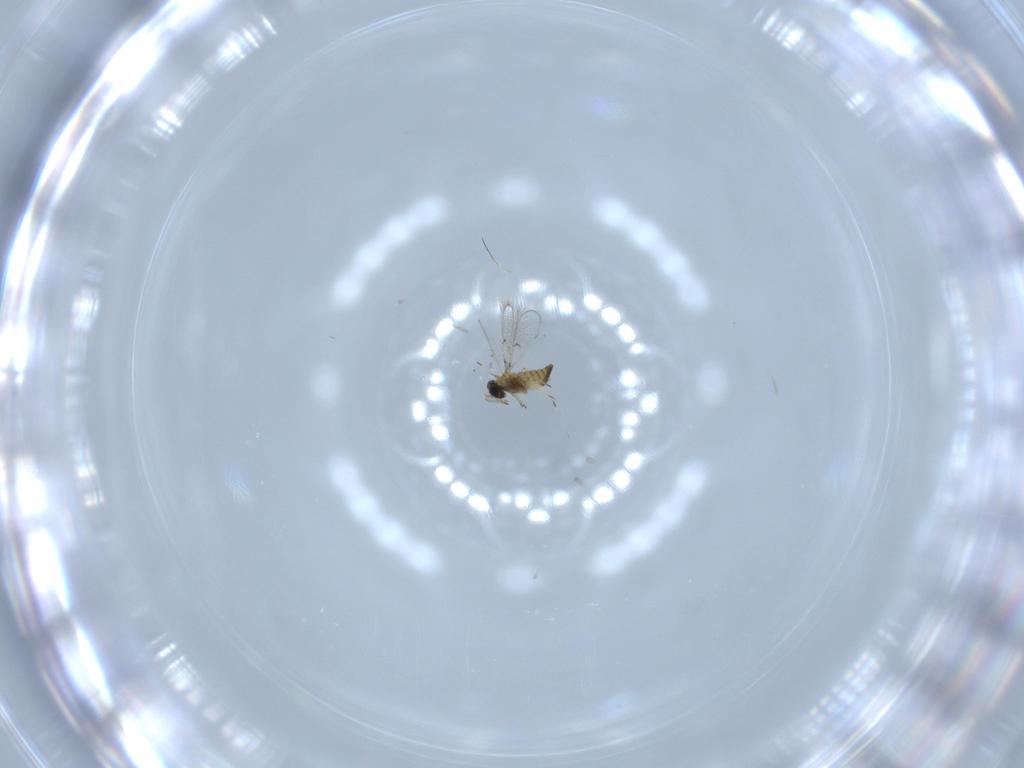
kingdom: Animalia
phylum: Arthropoda
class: Insecta
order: Hymenoptera
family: Trichogrammatidae
